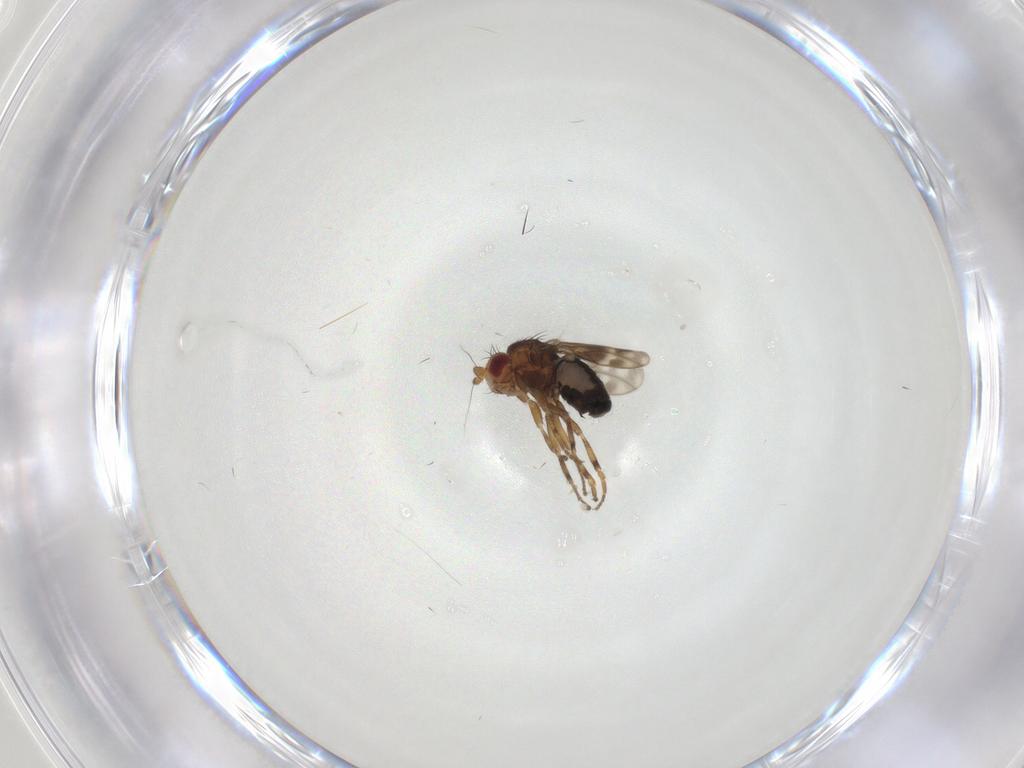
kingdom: Animalia
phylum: Arthropoda
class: Insecta
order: Diptera
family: Sphaeroceridae
